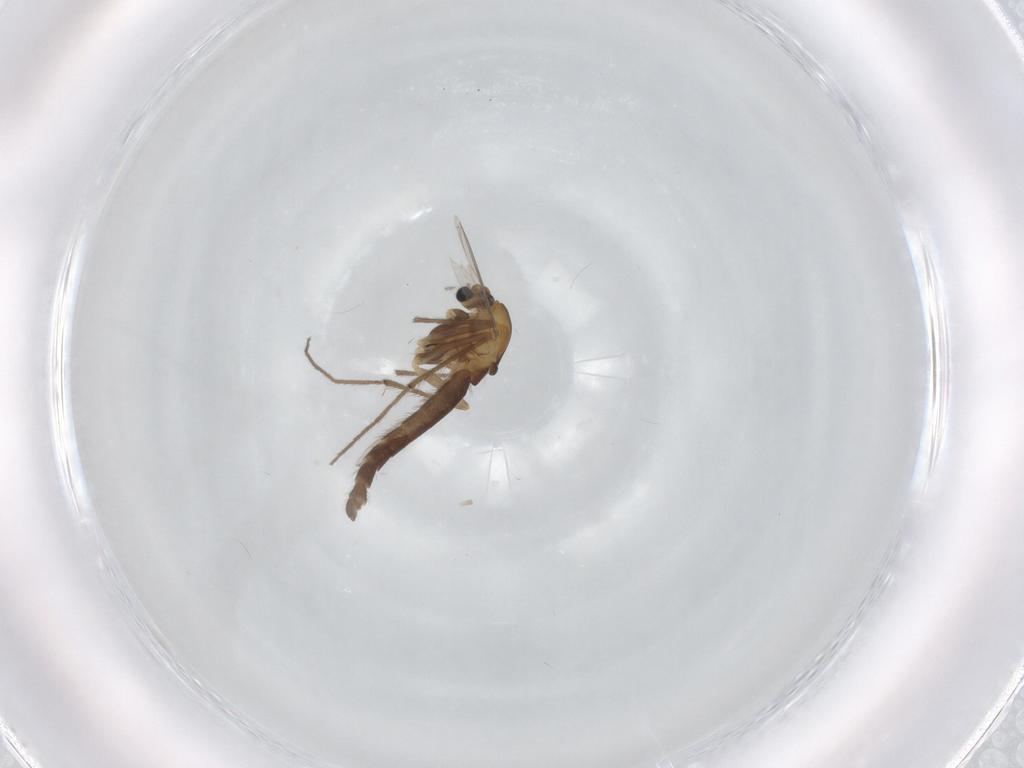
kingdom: Animalia
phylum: Arthropoda
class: Insecta
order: Diptera
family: Chironomidae
